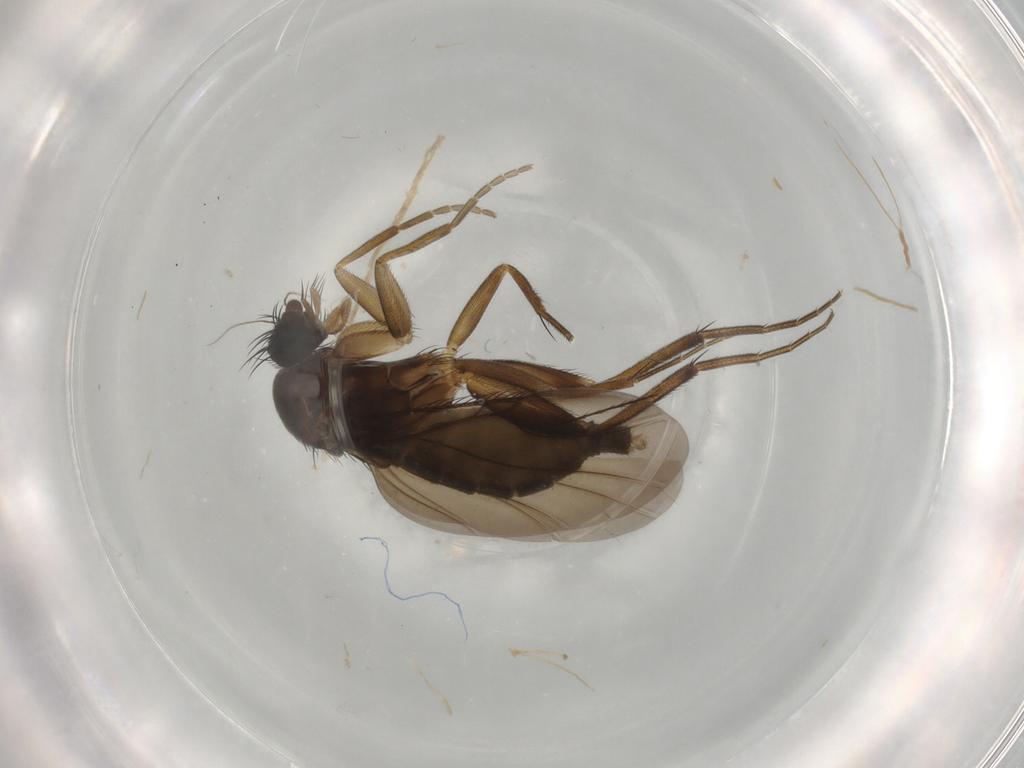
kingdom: Animalia
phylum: Arthropoda
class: Insecta
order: Diptera
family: Phoridae
